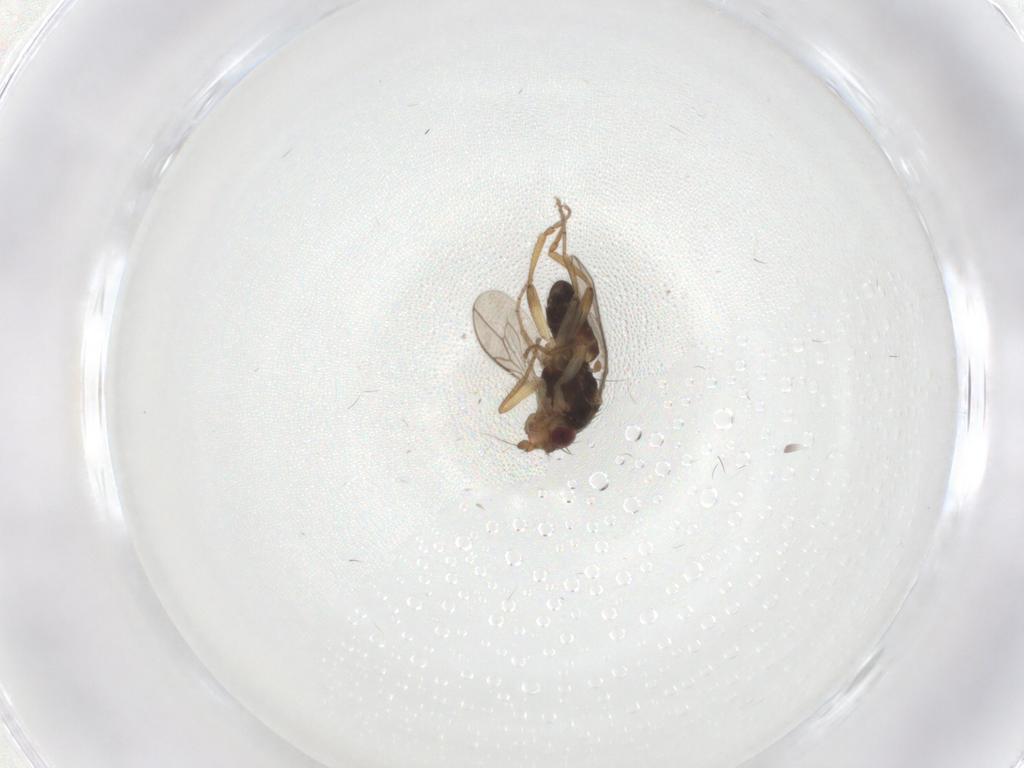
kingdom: Animalia
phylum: Arthropoda
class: Insecta
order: Diptera
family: Sphaeroceridae
